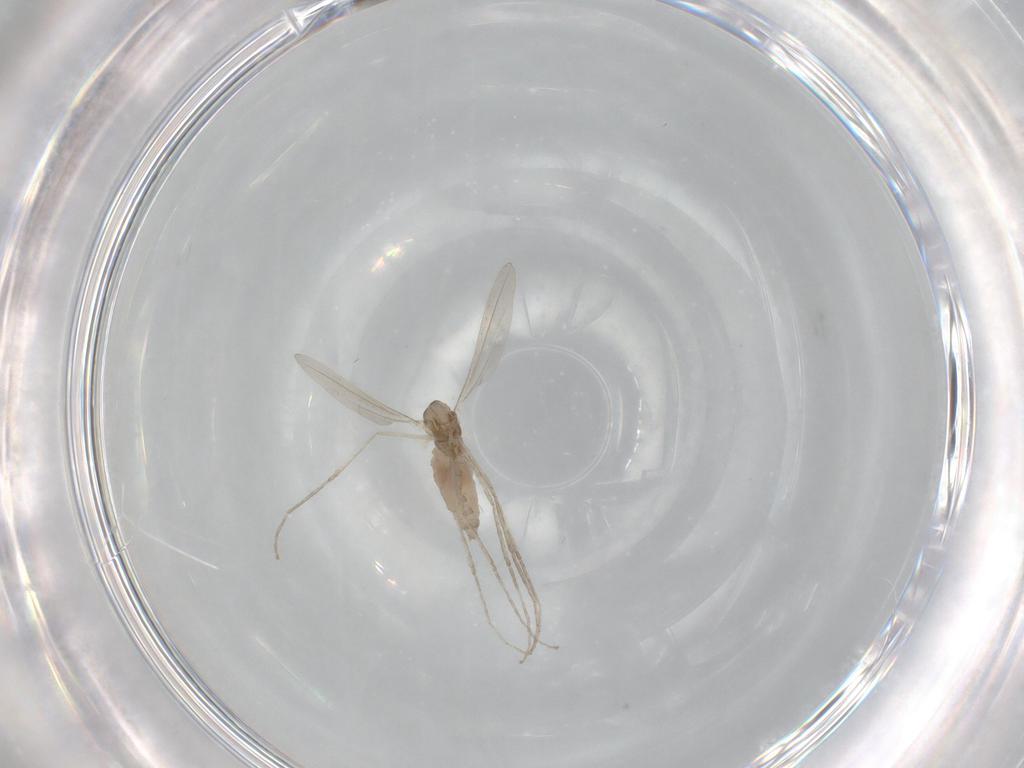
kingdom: Animalia
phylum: Arthropoda
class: Insecta
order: Diptera
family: Cecidomyiidae
